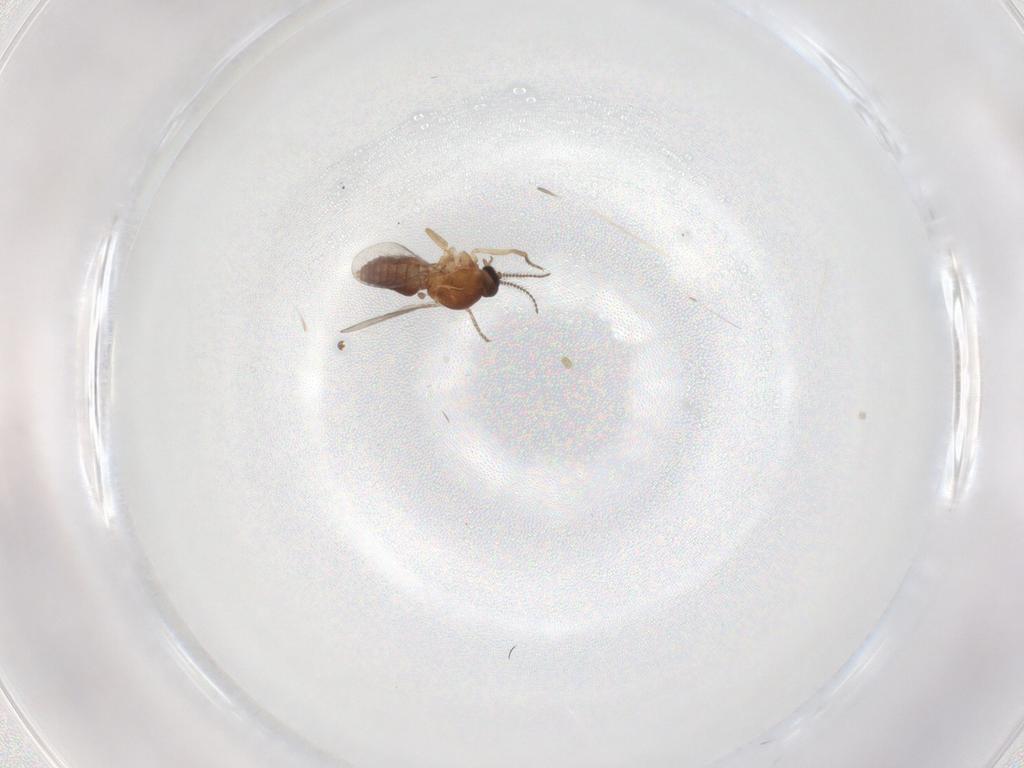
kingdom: Animalia
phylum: Arthropoda
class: Insecta
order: Diptera
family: Ceratopogonidae
